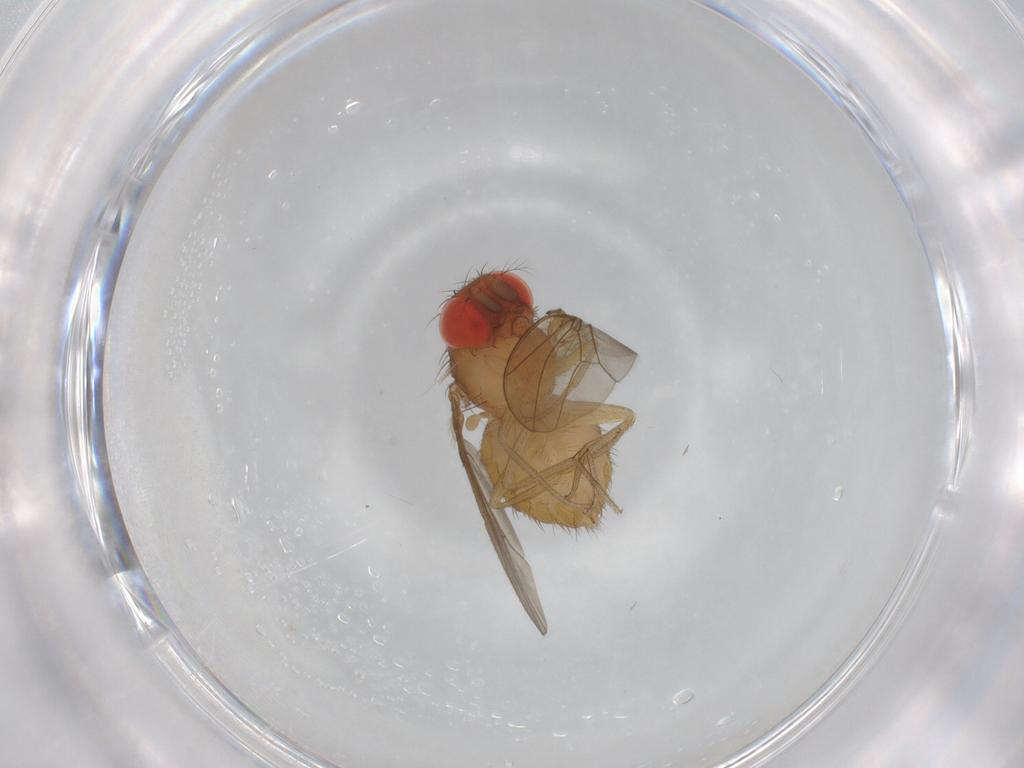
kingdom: Animalia
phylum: Arthropoda
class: Insecta
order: Diptera
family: Drosophilidae
